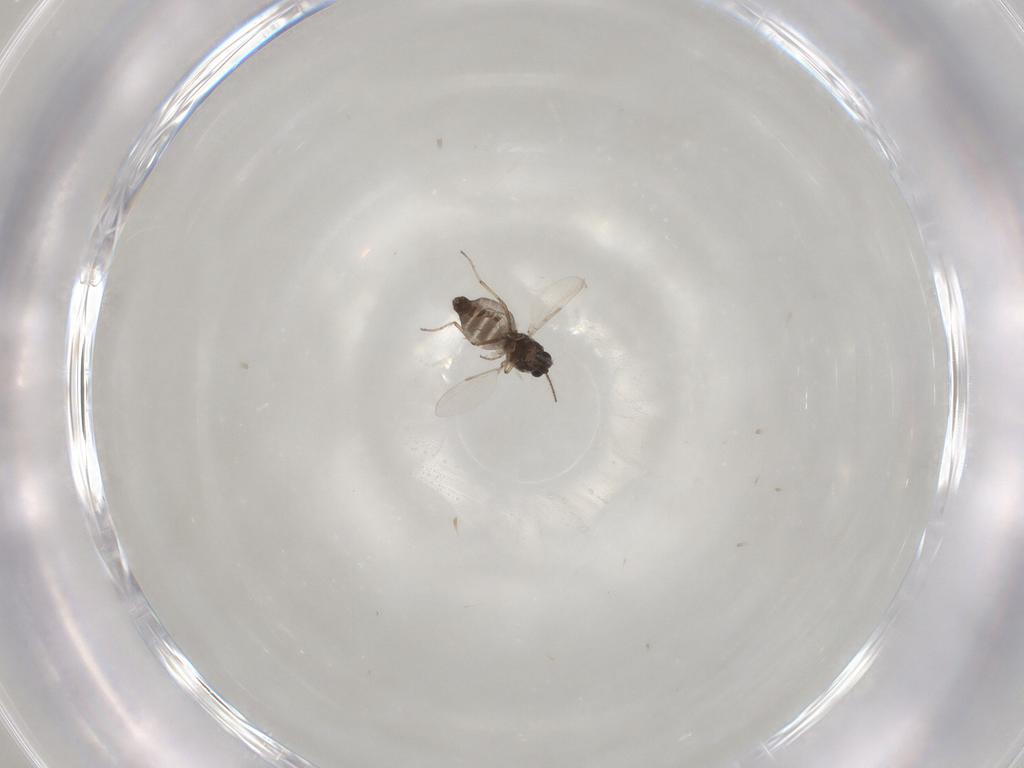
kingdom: Animalia
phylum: Arthropoda
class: Insecta
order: Diptera
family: Ceratopogonidae
